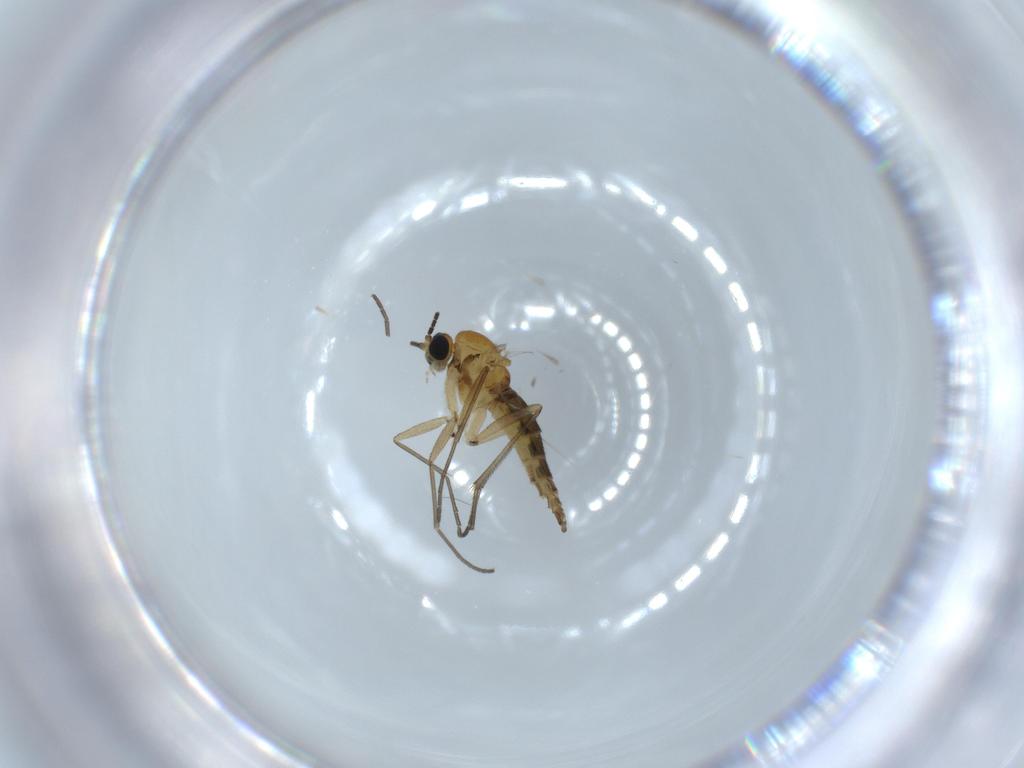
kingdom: Animalia
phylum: Arthropoda
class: Insecta
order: Diptera
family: Sciaridae
